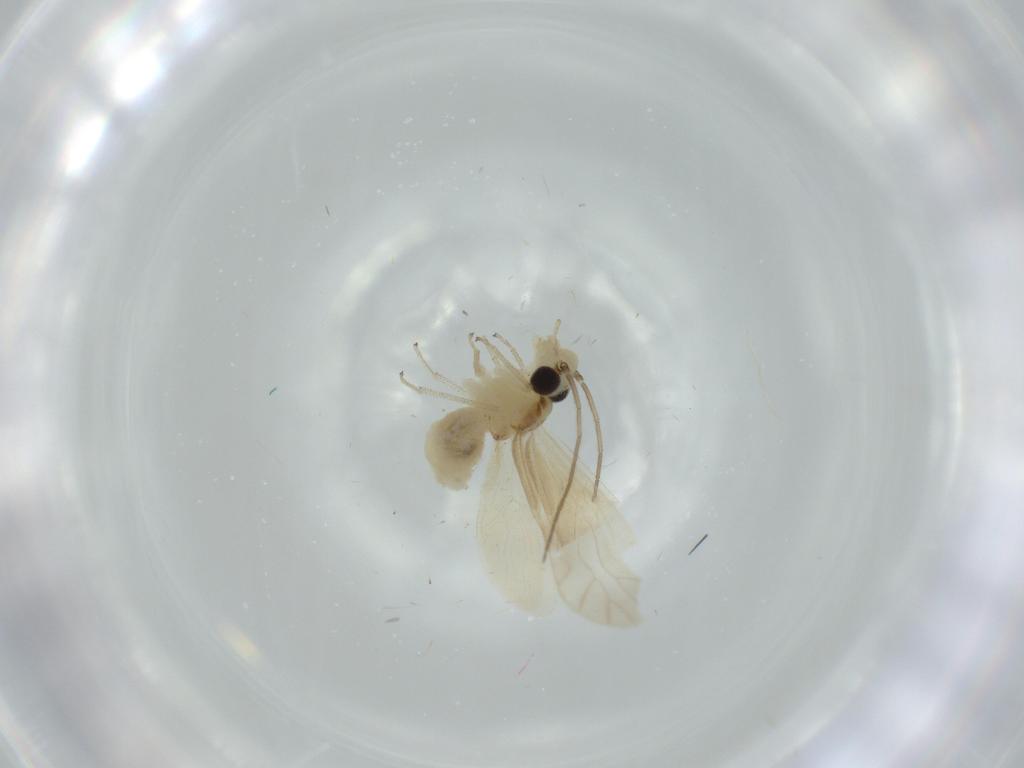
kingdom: Animalia
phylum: Arthropoda
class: Insecta
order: Psocodea
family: Caeciliusidae
